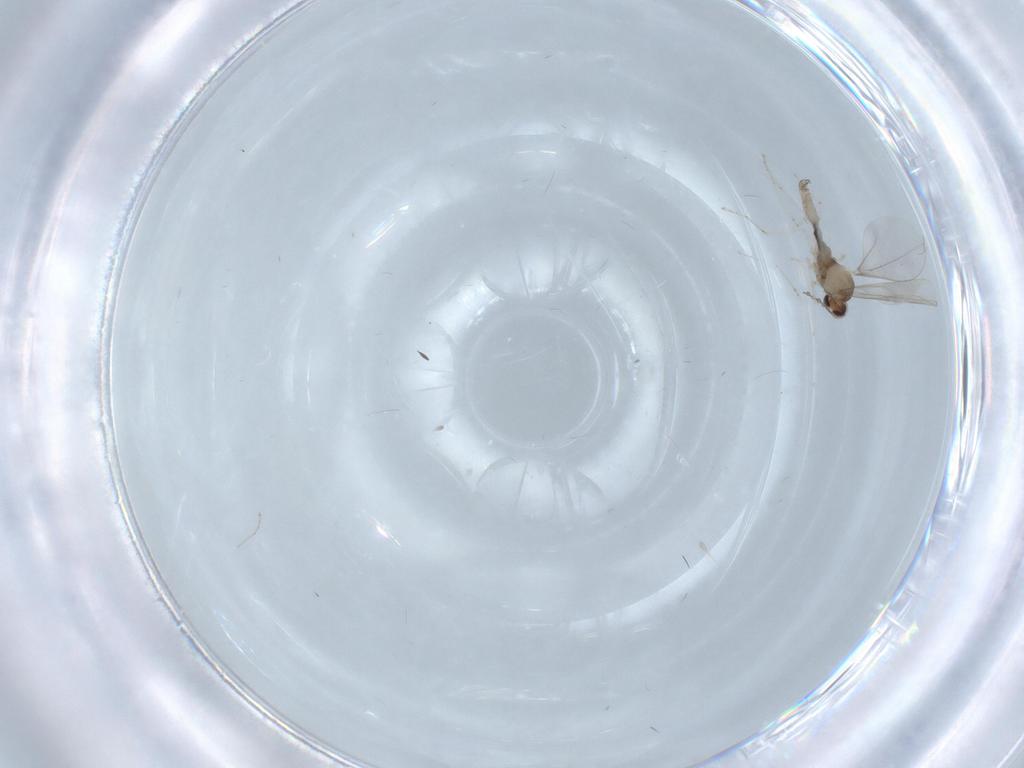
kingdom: Animalia
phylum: Arthropoda
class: Insecta
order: Diptera
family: Cecidomyiidae
